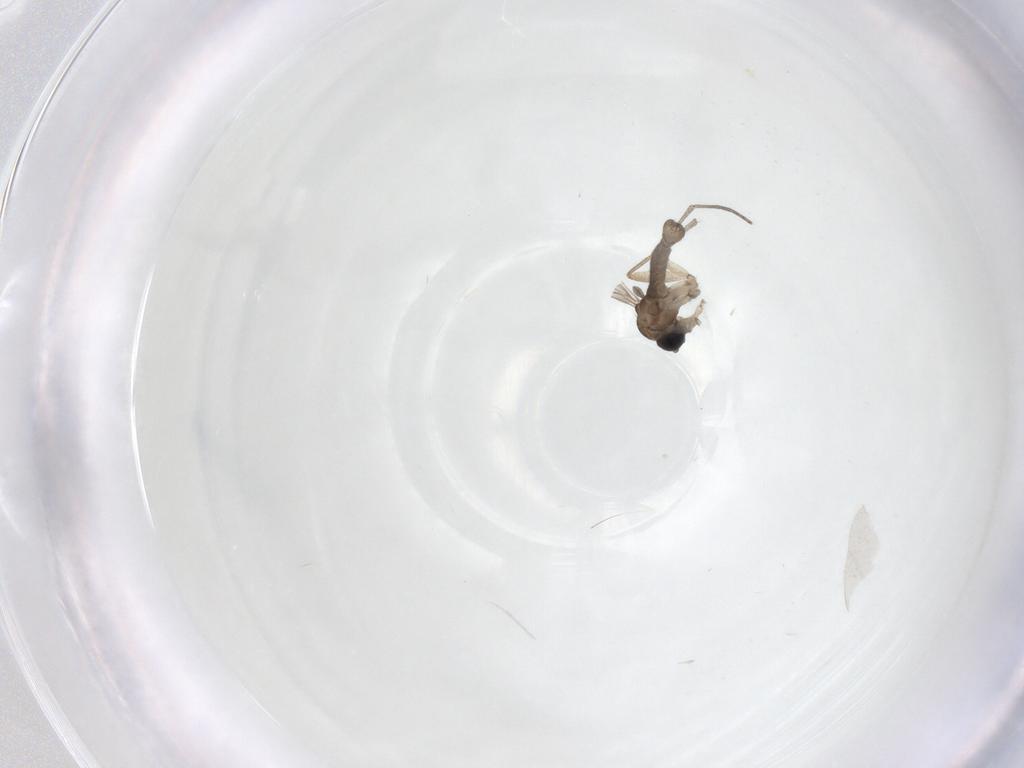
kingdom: Animalia
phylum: Arthropoda
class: Insecta
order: Diptera
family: Sciaridae
